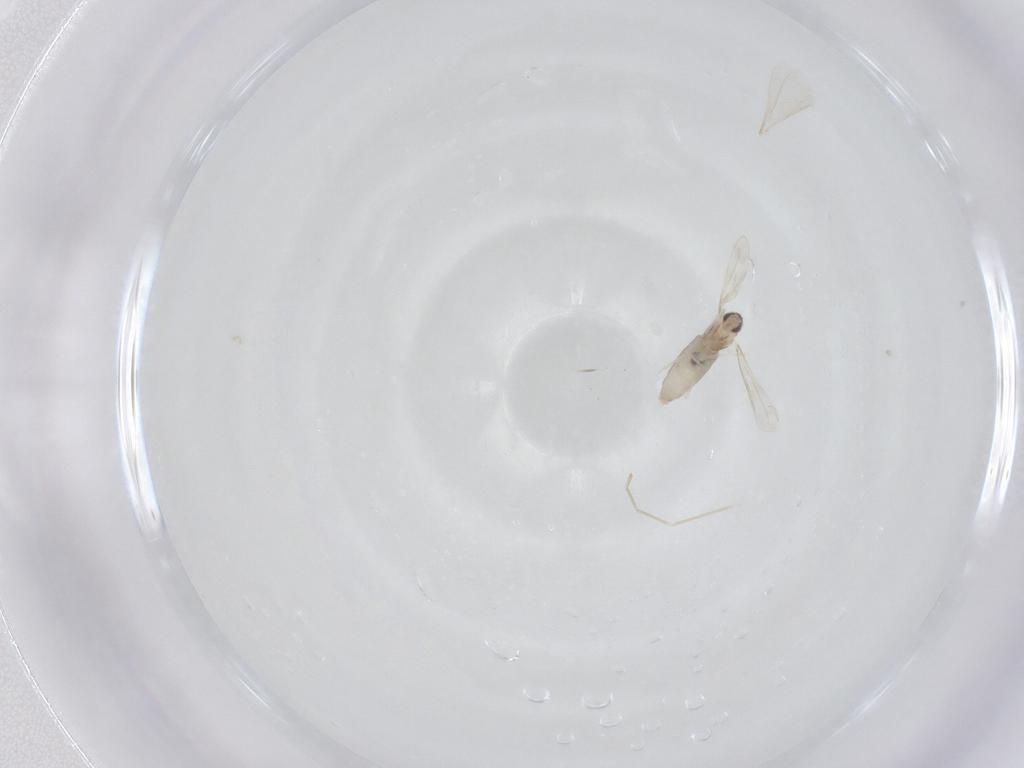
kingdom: Animalia
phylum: Arthropoda
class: Insecta
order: Diptera
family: Cecidomyiidae
